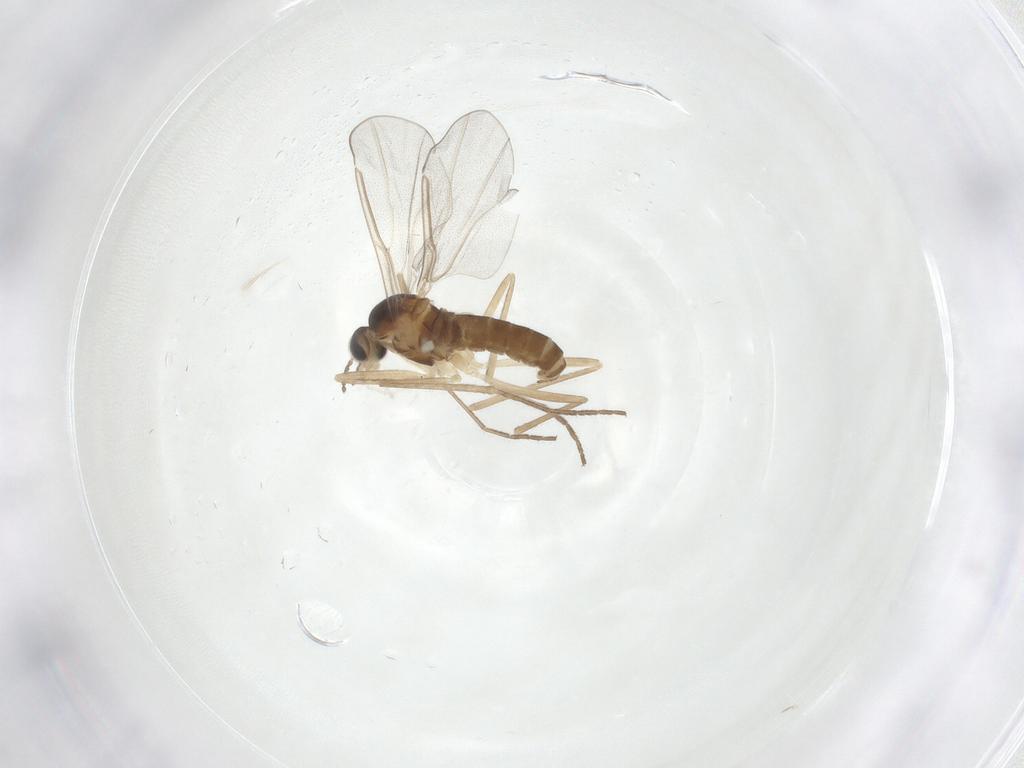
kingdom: Animalia
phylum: Arthropoda
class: Insecta
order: Diptera
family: Cecidomyiidae
